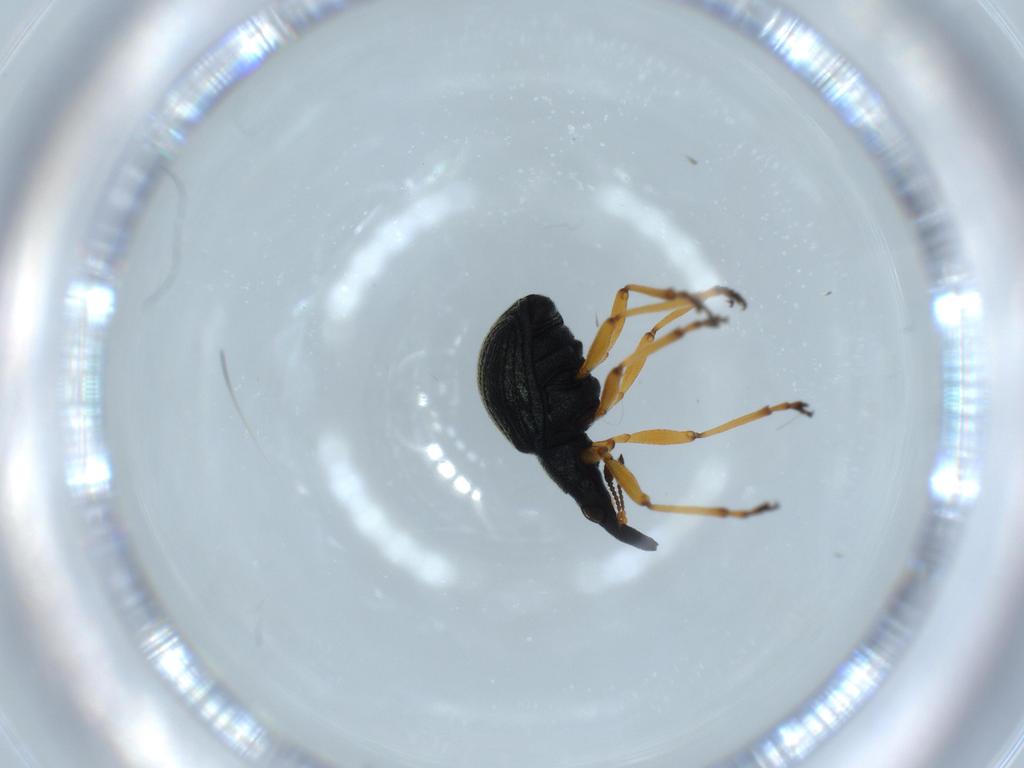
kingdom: Animalia
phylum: Arthropoda
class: Insecta
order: Coleoptera
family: Brentidae
